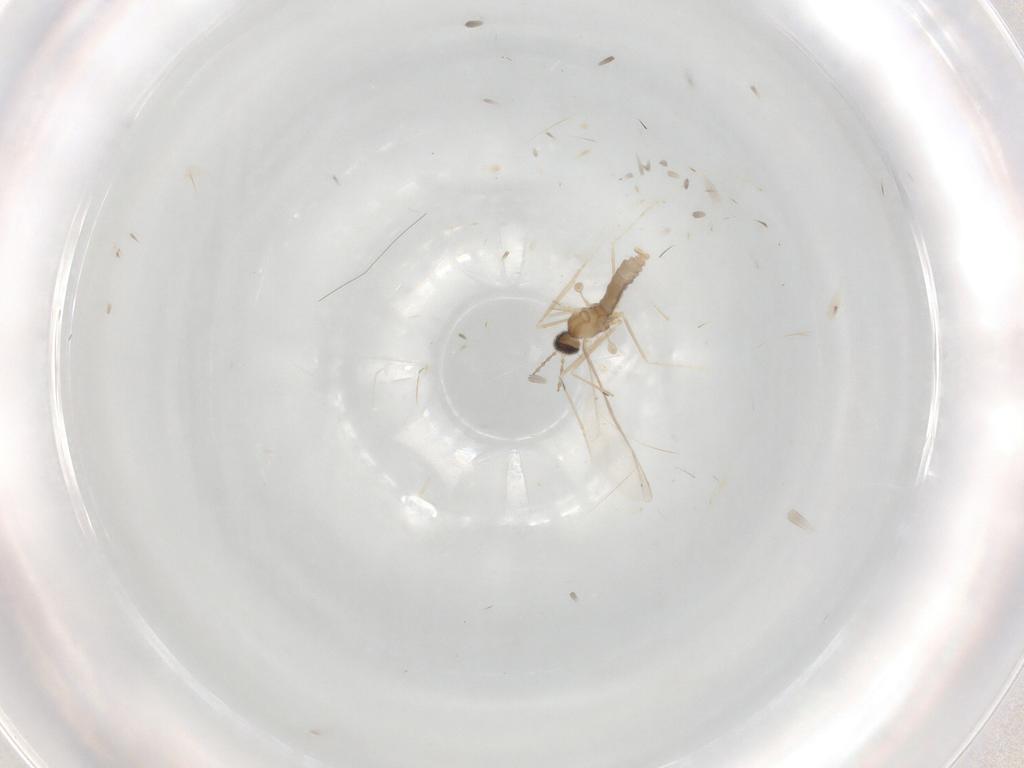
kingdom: Animalia
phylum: Arthropoda
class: Insecta
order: Diptera
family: Cecidomyiidae
